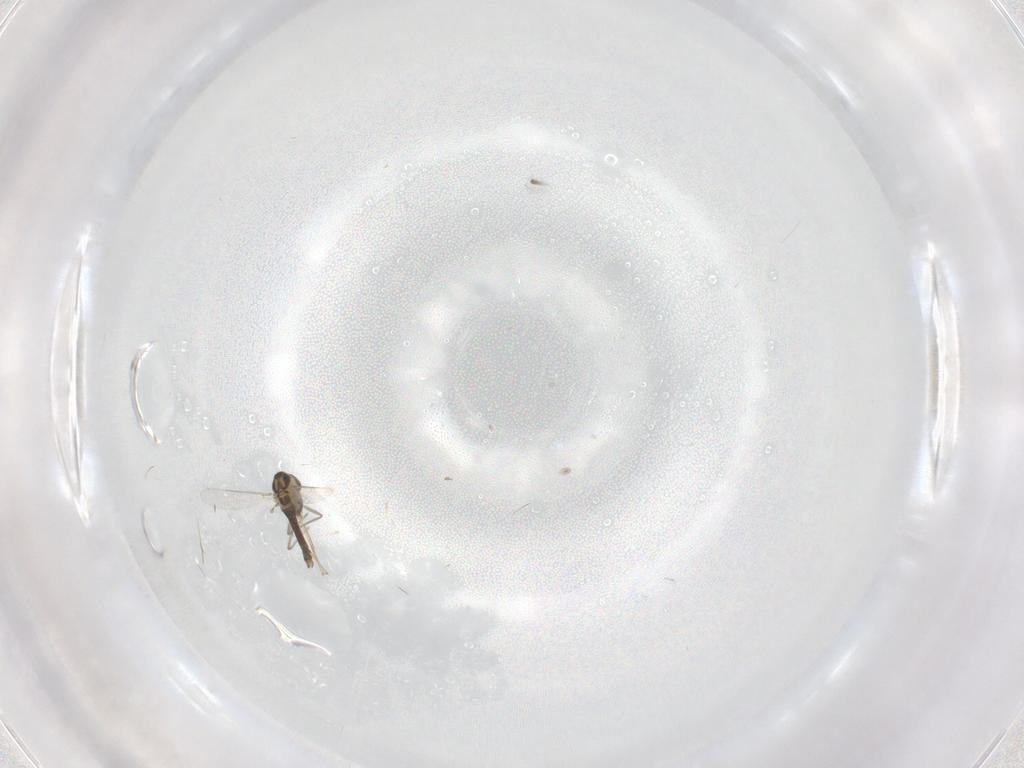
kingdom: Animalia
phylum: Arthropoda
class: Insecta
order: Diptera
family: Chironomidae
